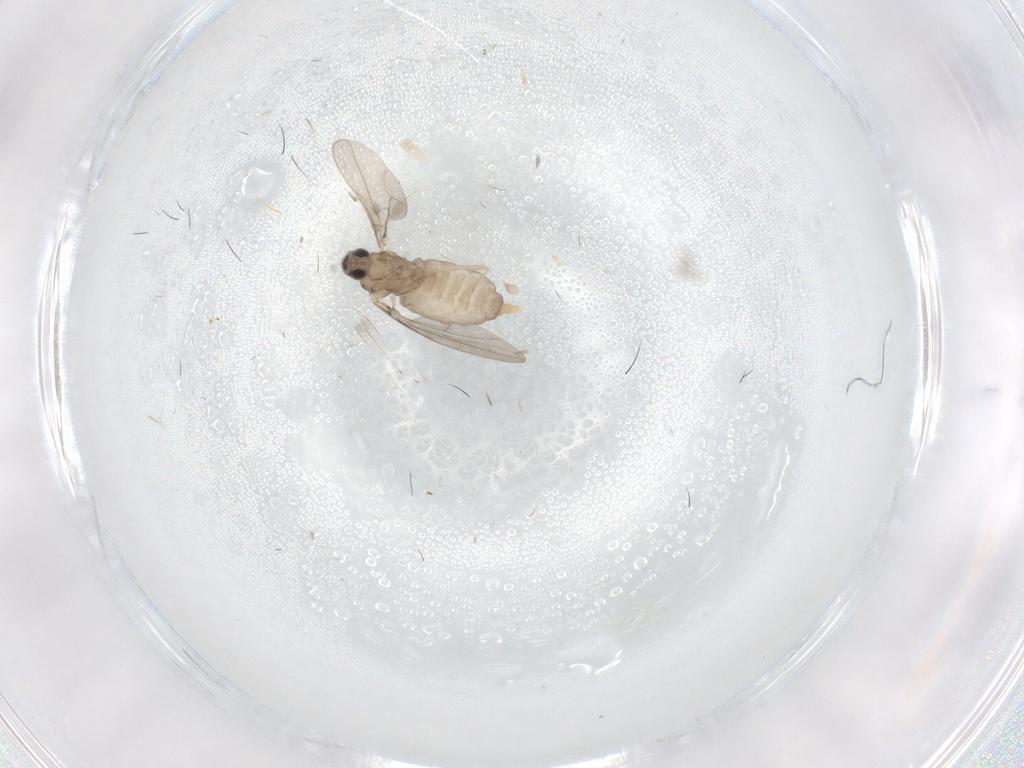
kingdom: Animalia
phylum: Arthropoda
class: Insecta
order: Diptera
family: Cecidomyiidae
